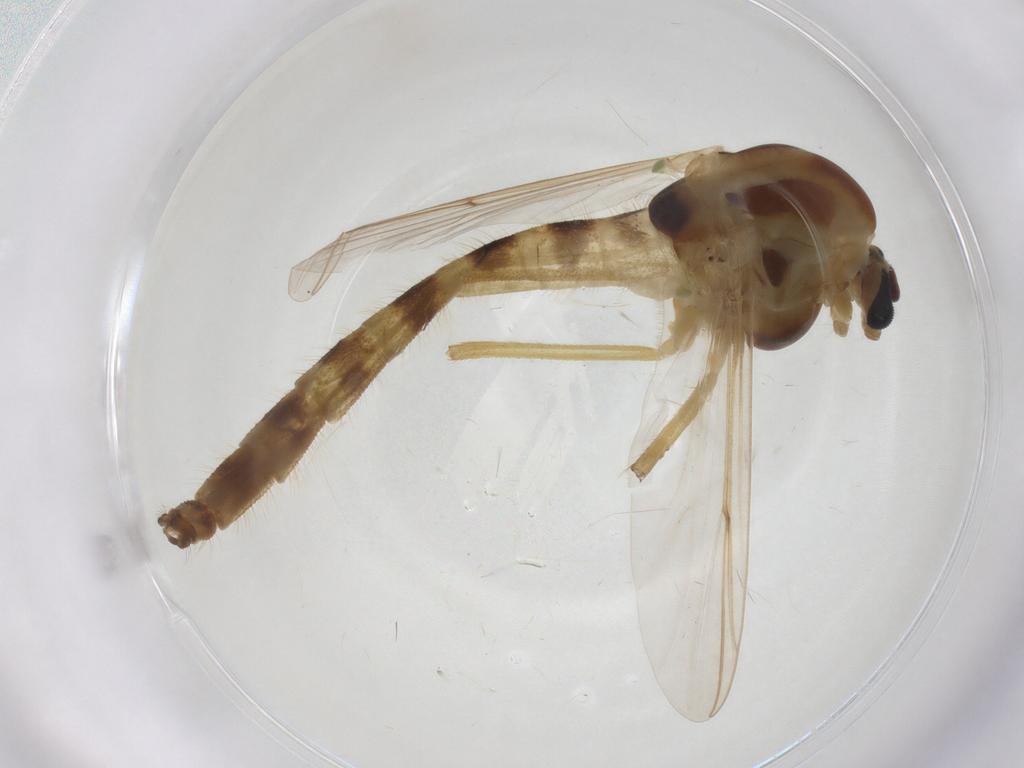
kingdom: Animalia
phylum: Arthropoda
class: Insecta
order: Diptera
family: Chironomidae
